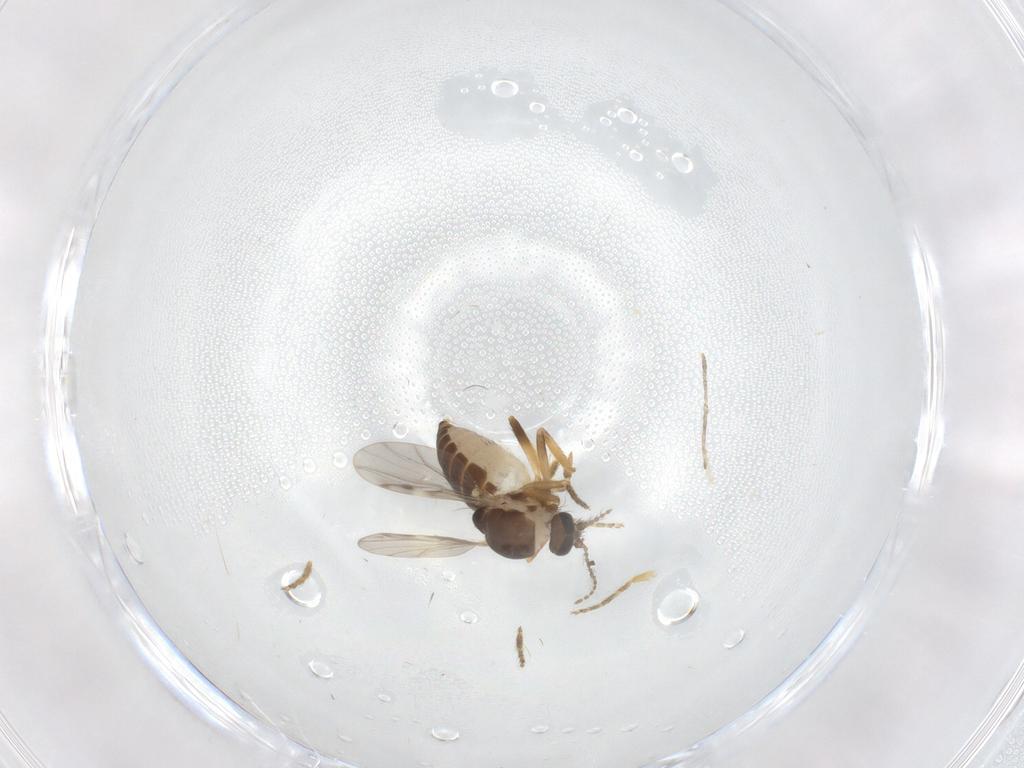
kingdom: Animalia
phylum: Arthropoda
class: Insecta
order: Diptera
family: Ceratopogonidae
